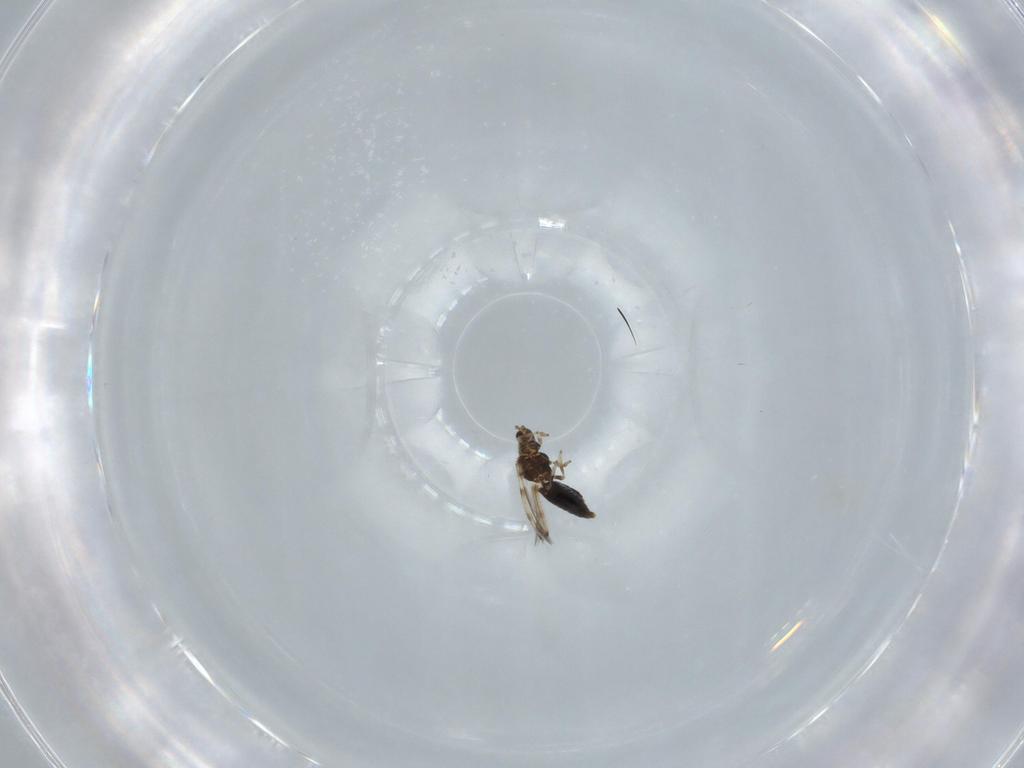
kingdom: Animalia
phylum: Arthropoda
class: Insecta
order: Thysanoptera
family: Thripidae
